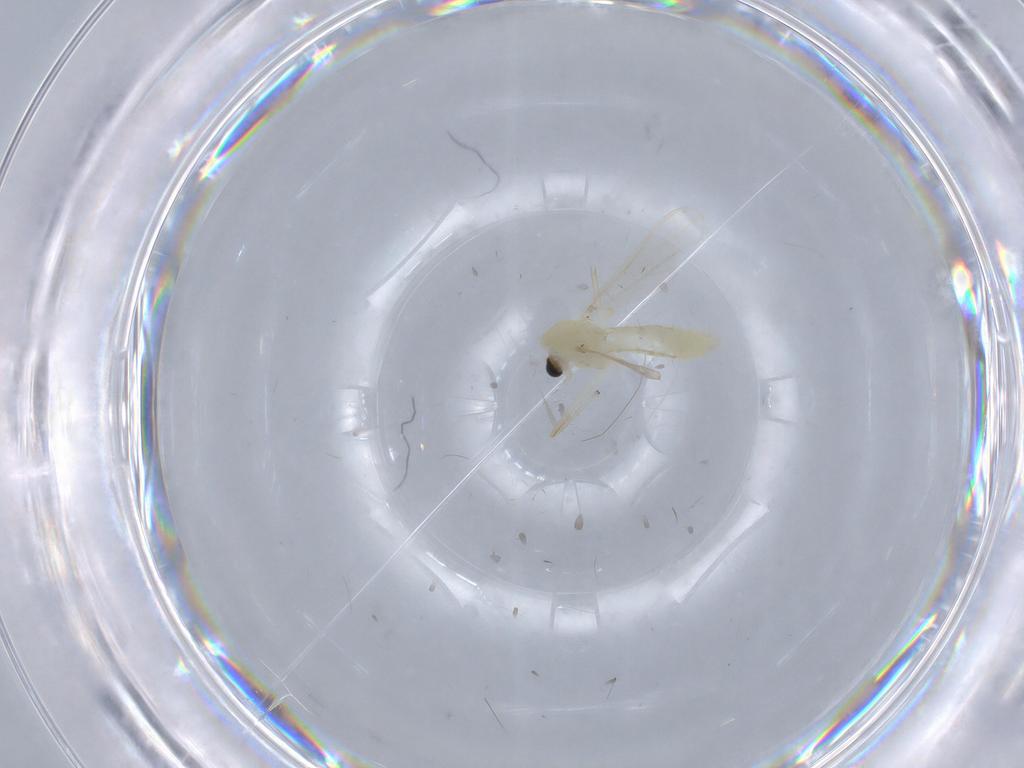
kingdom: Animalia
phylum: Arthropoda
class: Insecta
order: Diptera
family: Chironomidae
